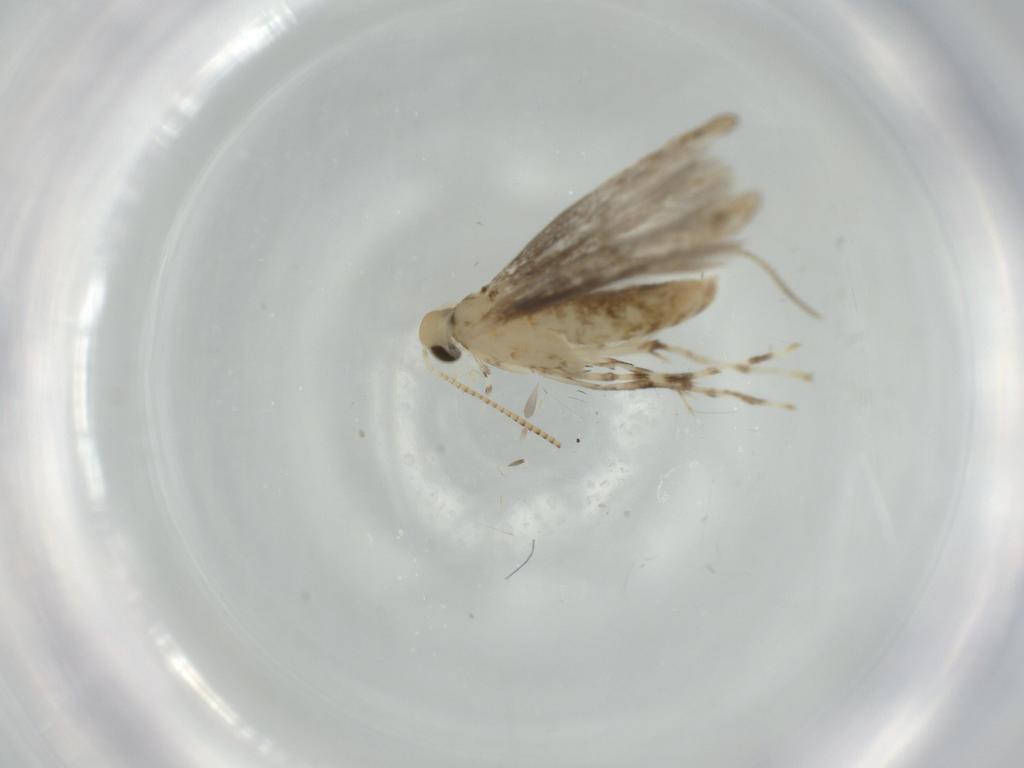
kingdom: Animalia
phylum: Arthropoda
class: Insecta
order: Lepidoptera
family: Gracillariidae
